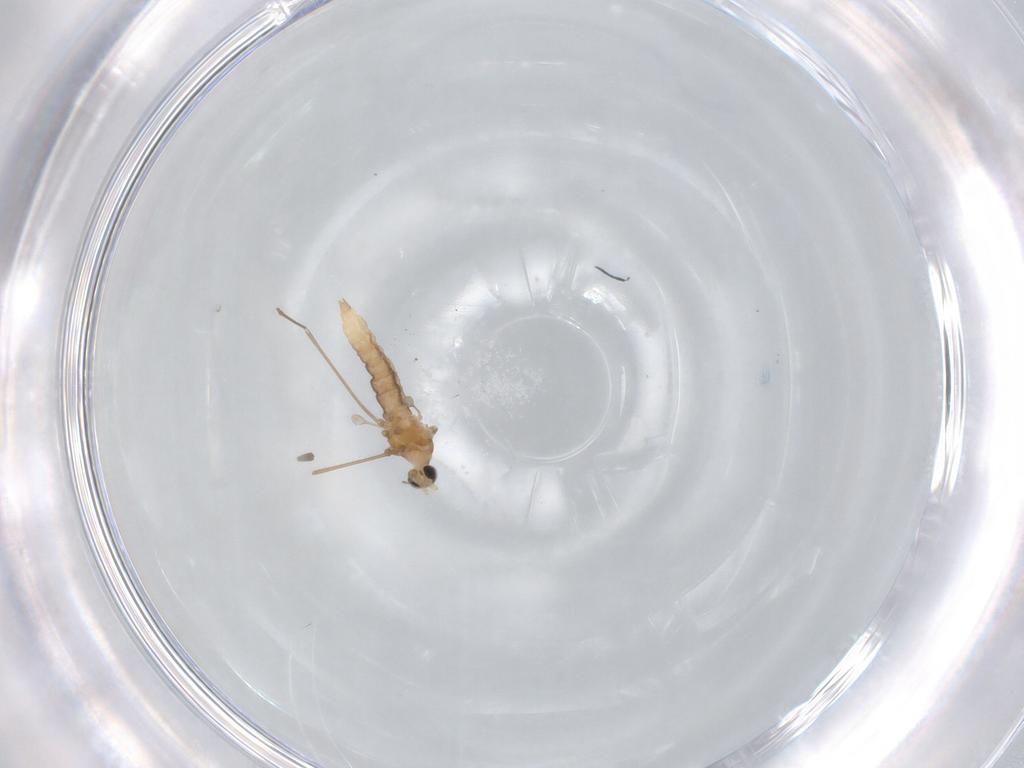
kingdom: Animalia
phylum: Arthropoda
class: Insecta
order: Diptera
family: Cecidomyiidae
